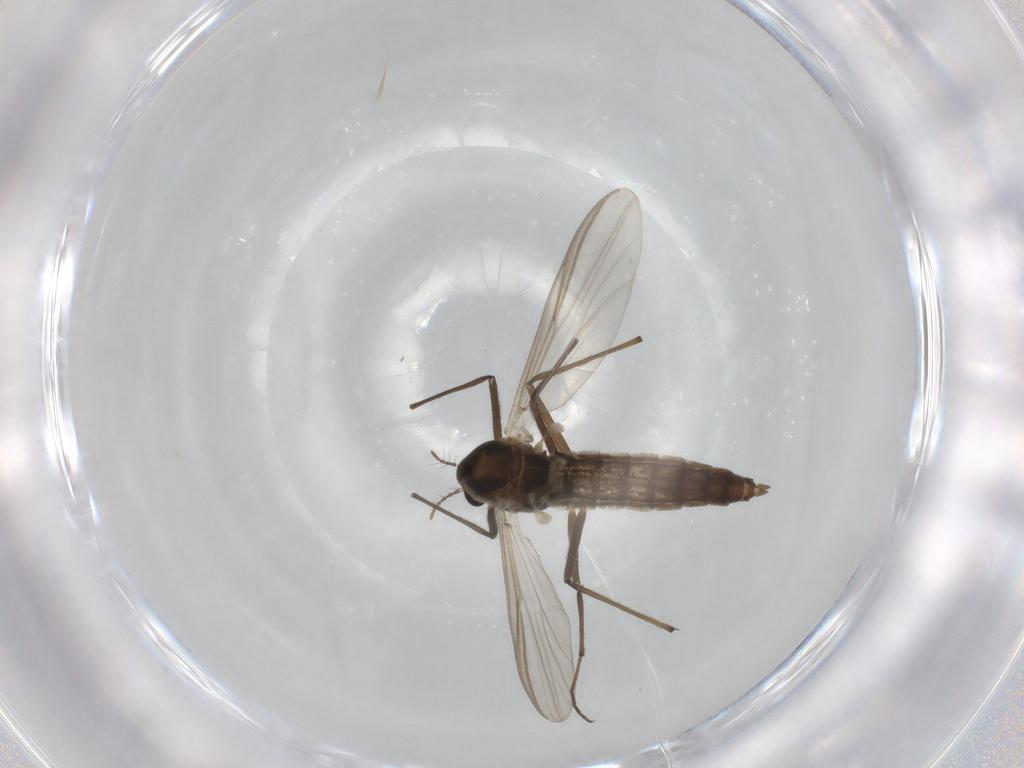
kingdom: Animalia
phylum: Arthropoda
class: Insecta
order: Diptera
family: Chironomidae
